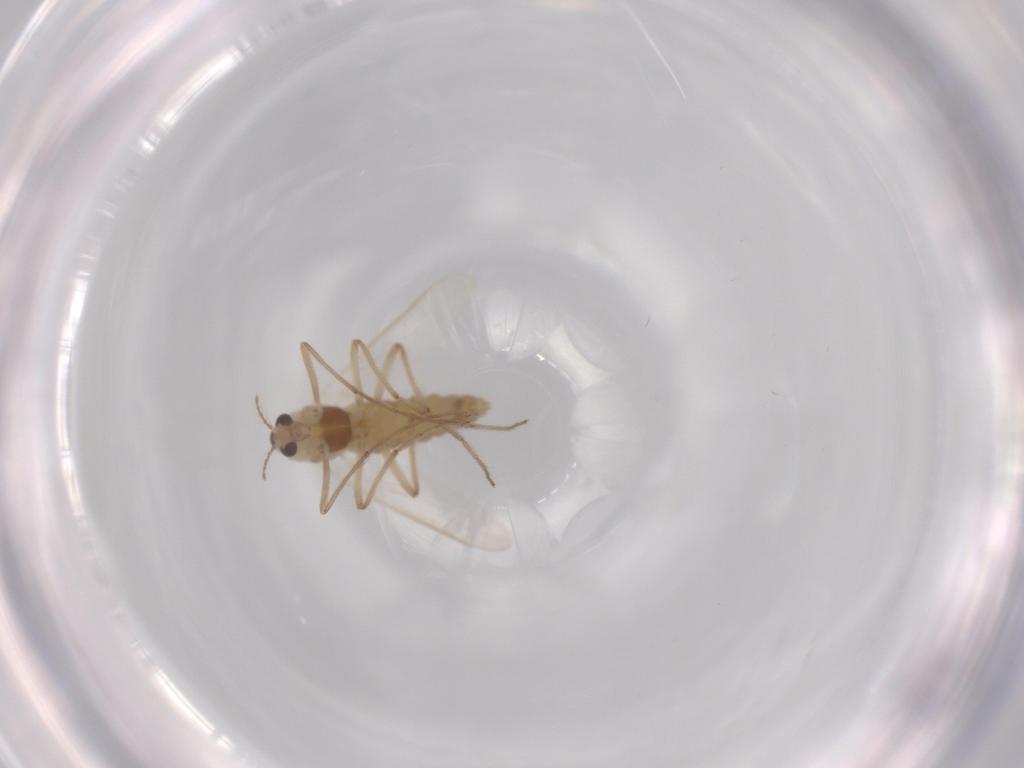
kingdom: Animalia
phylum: Arthropoda
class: Insecta
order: Diptera
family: Chironomidae
